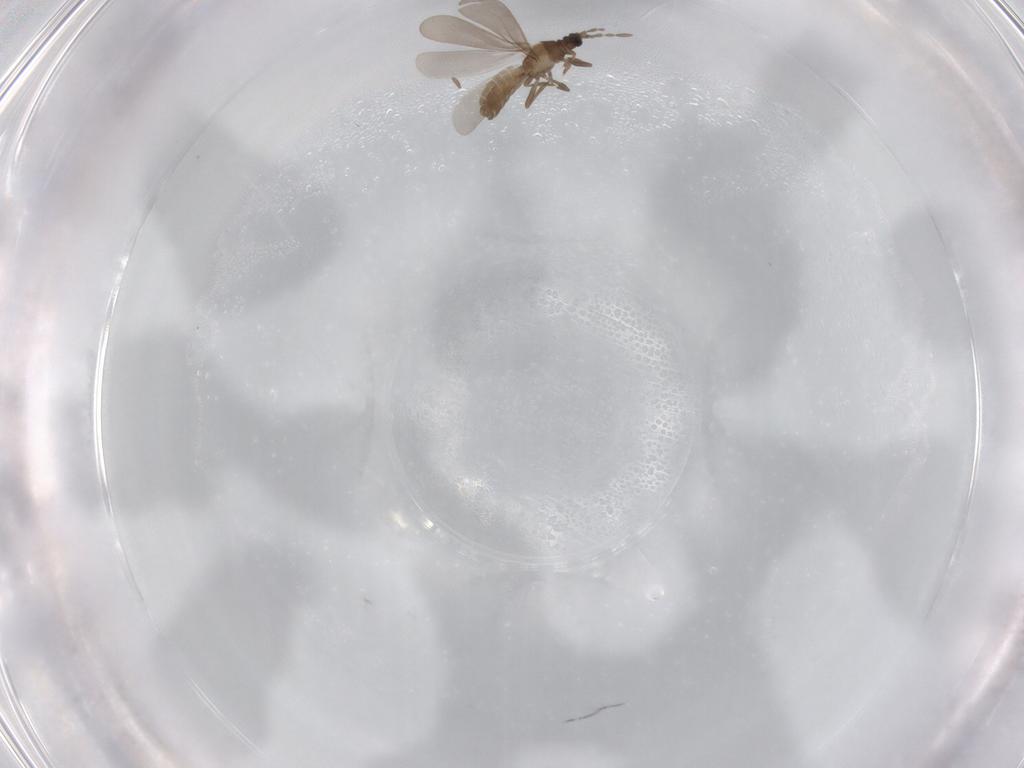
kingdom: Animalia
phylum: Arthropoda
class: Insecta
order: Hemiptera
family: Enicocephalidae
